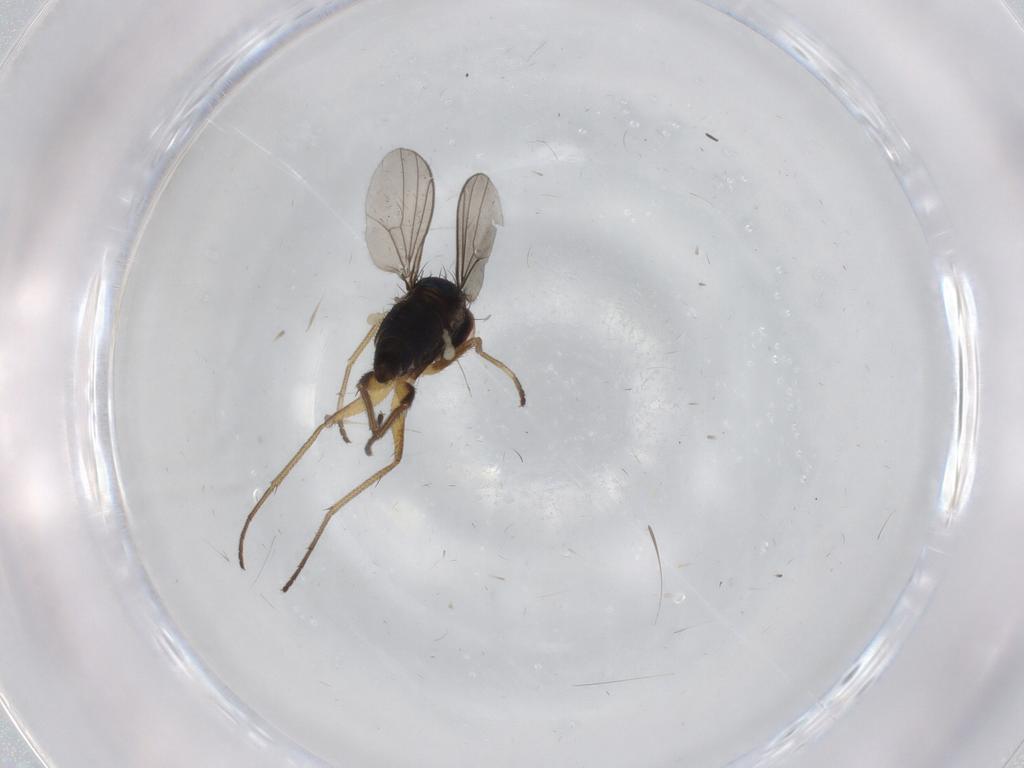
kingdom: Animalia
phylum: Arthropoda
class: Insecta
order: Diptera
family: Dolichopodidae
